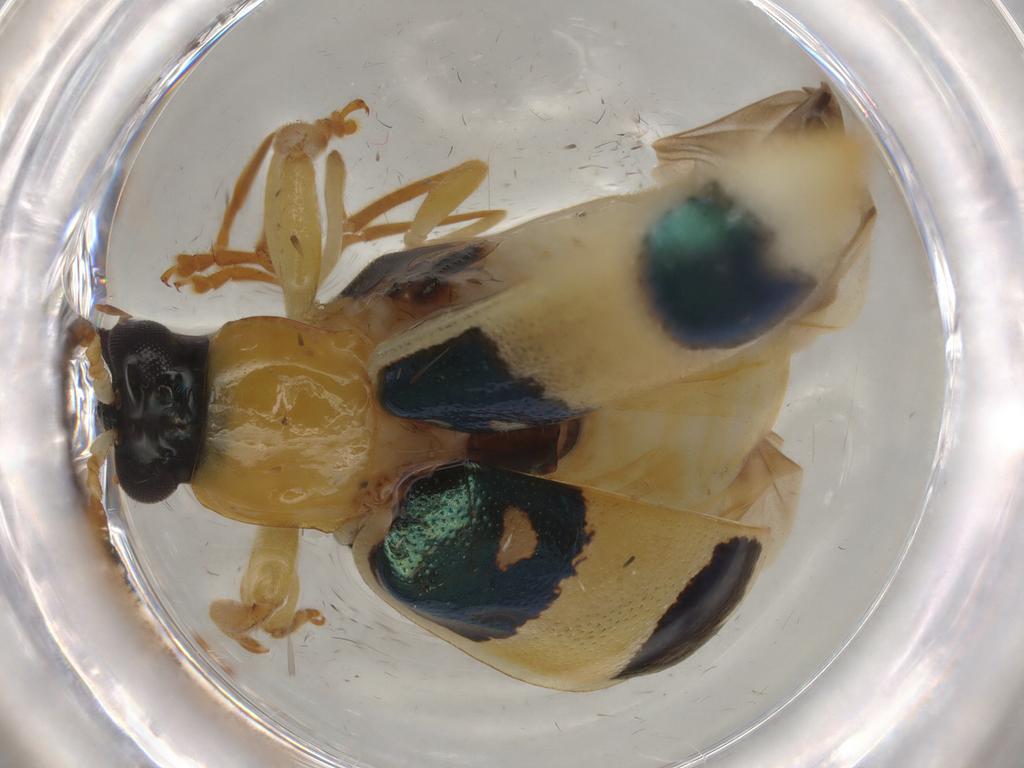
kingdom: Animalia
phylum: Arthropoda
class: Insecta
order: Coleoptera
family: Chrysomelidae
